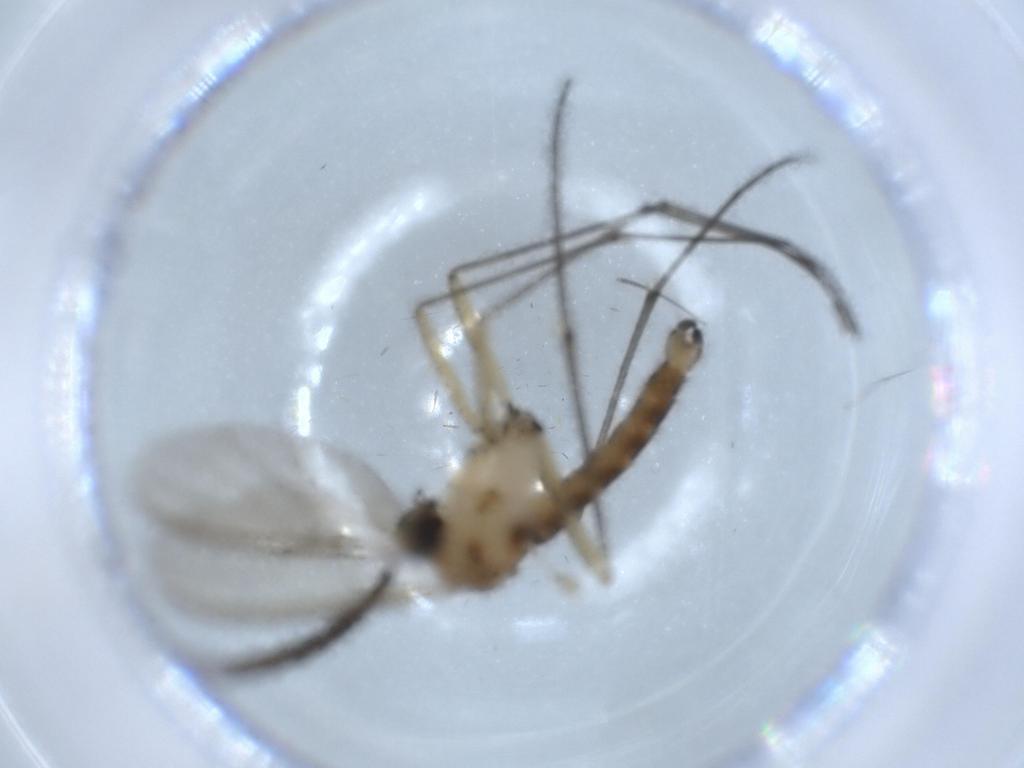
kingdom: Animalia
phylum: Arthropoda
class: Insecta
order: Diptera
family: Sciaridae
